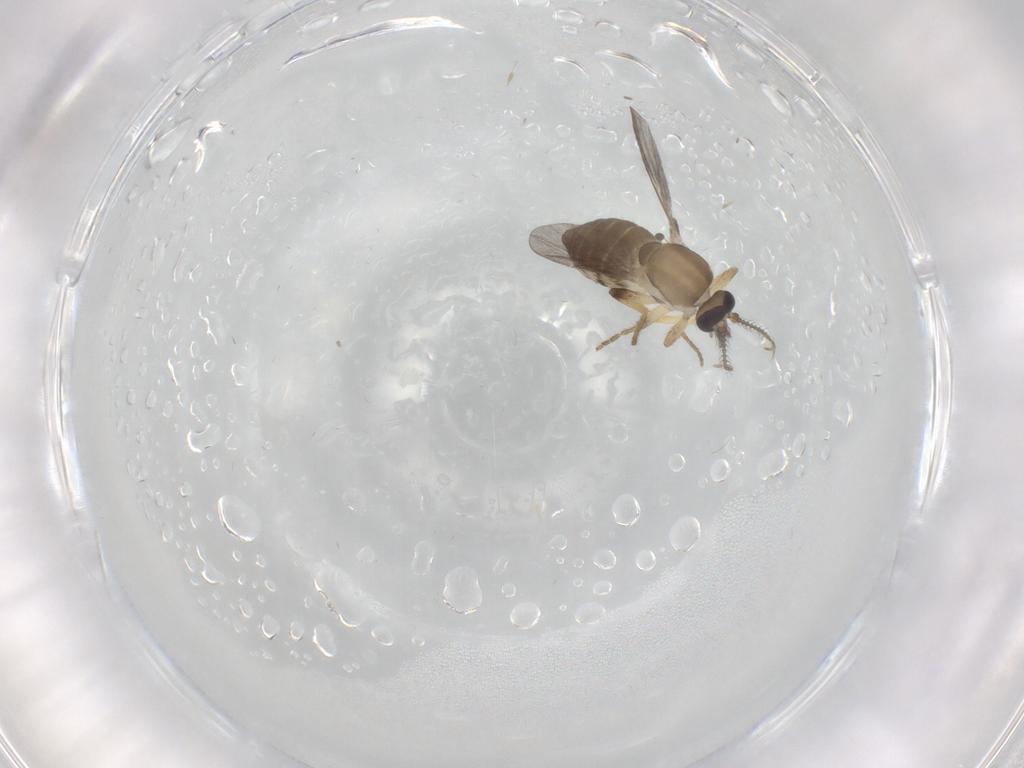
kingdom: Animalia
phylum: Arthropoda
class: Insecta
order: Diptera
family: Ceratopogonidae
